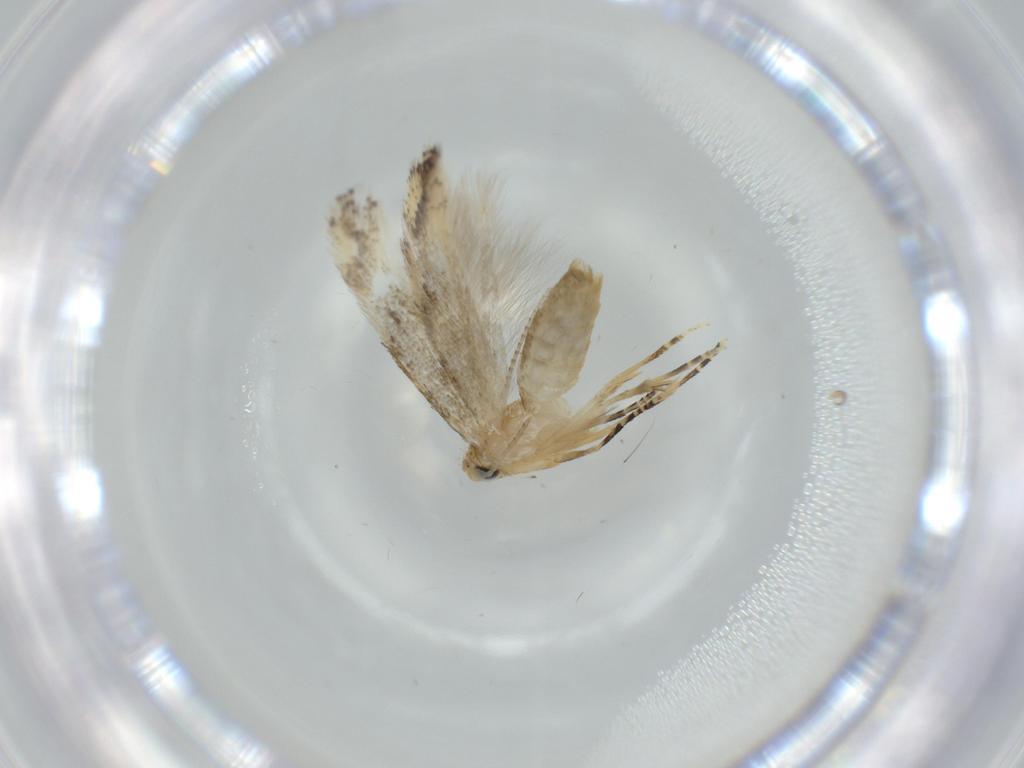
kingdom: Animalia
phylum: Arthropoda
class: Insecta
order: Lepidoptera
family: Bucculatricidae
